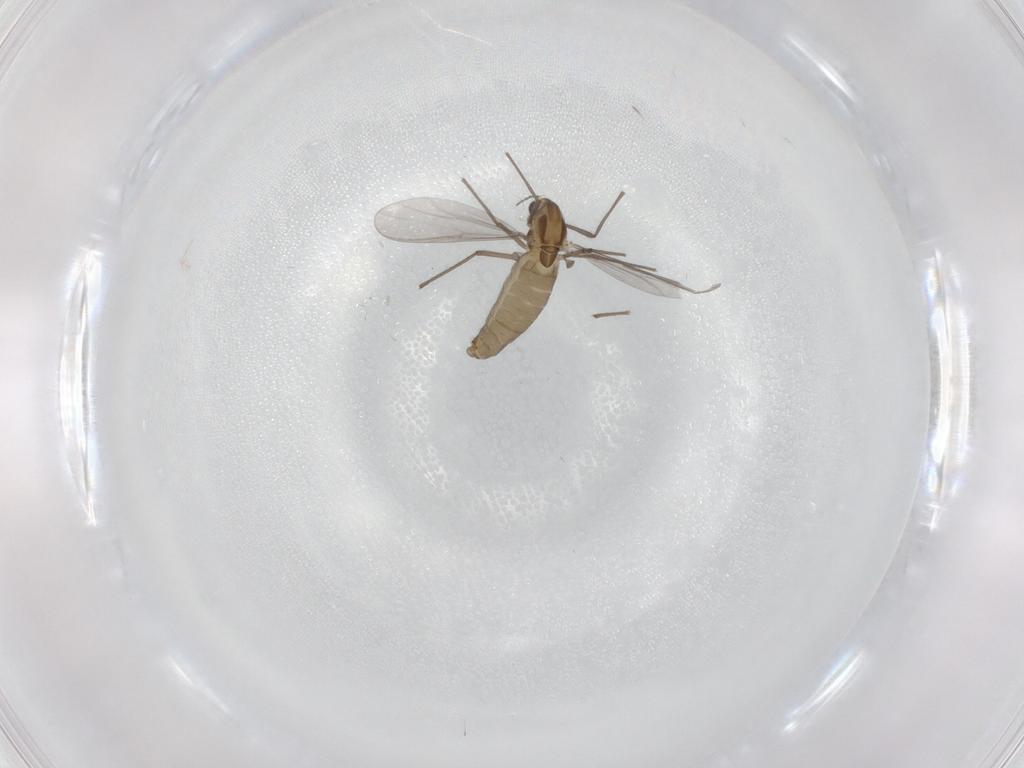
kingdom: Animalia
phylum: Arthropoda
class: Insecta
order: Diptera
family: Phoridae
